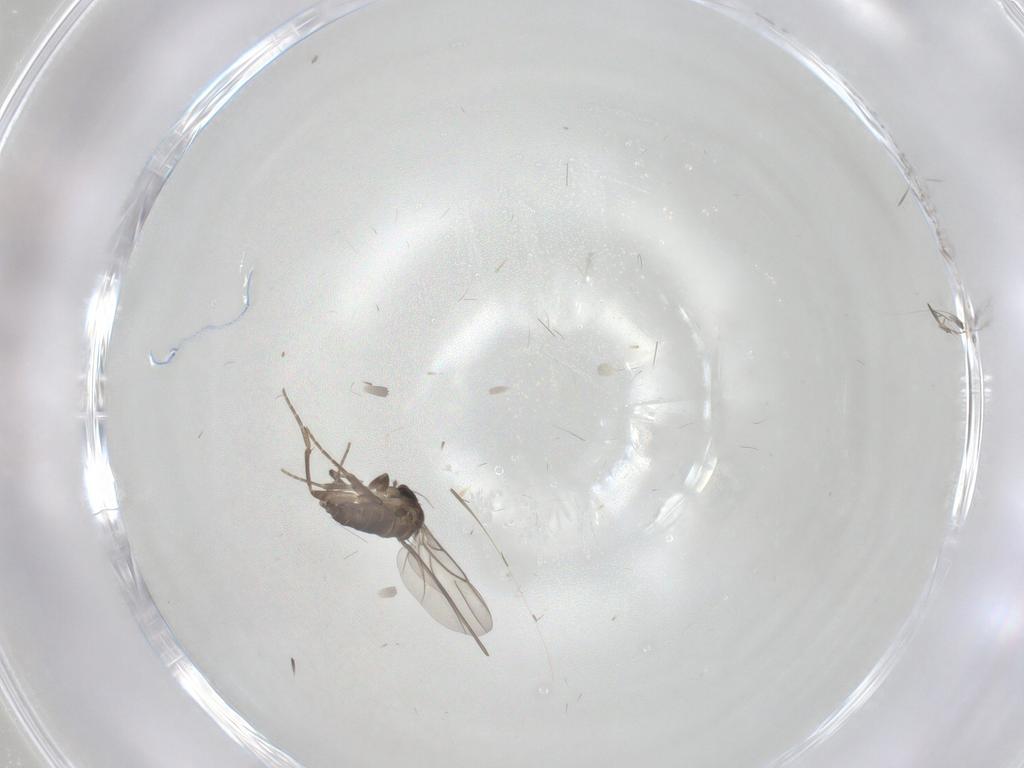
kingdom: Animalia
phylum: Arthropoda
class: Insecta
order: Diptera
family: Phoridae
